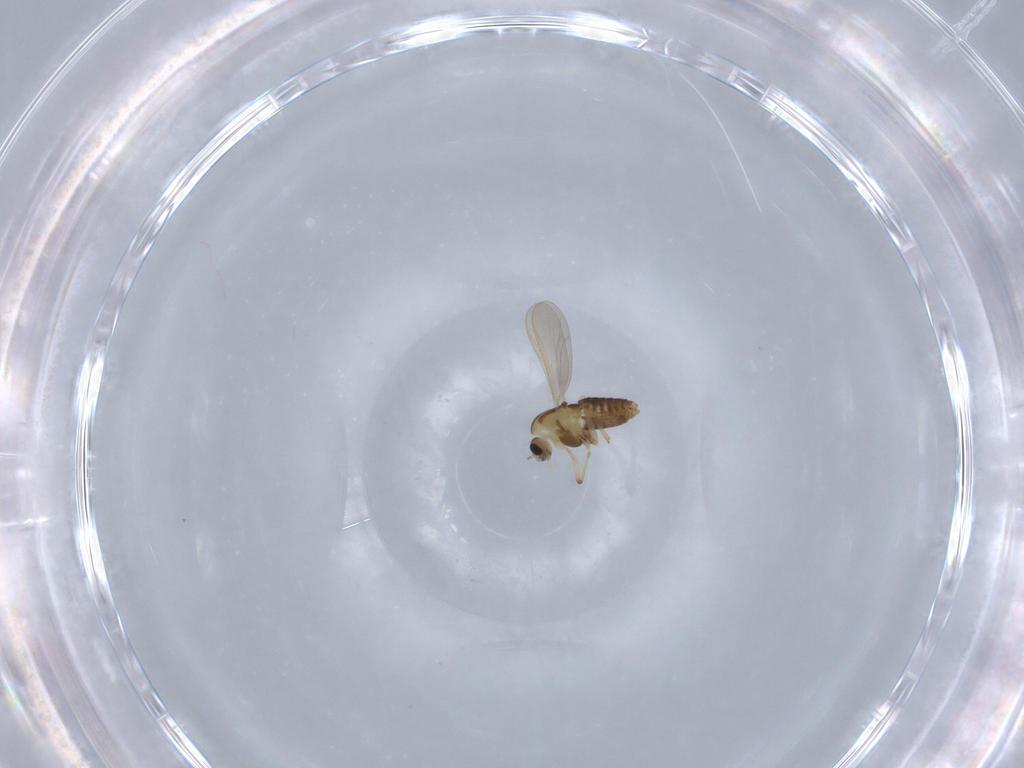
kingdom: Animalia
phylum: Arthropoda
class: Insecta
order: Diptera
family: Chironomidae
